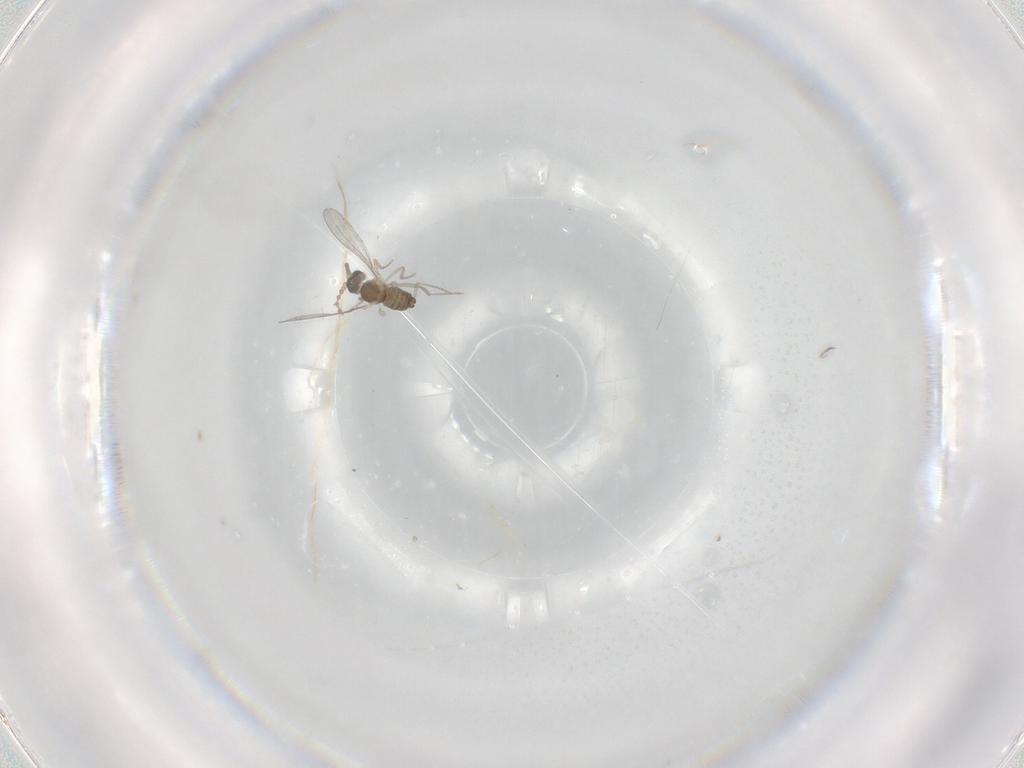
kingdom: Animalia
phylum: Arthropoda
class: Insecta
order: Diptera
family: Cecidomyiidae
